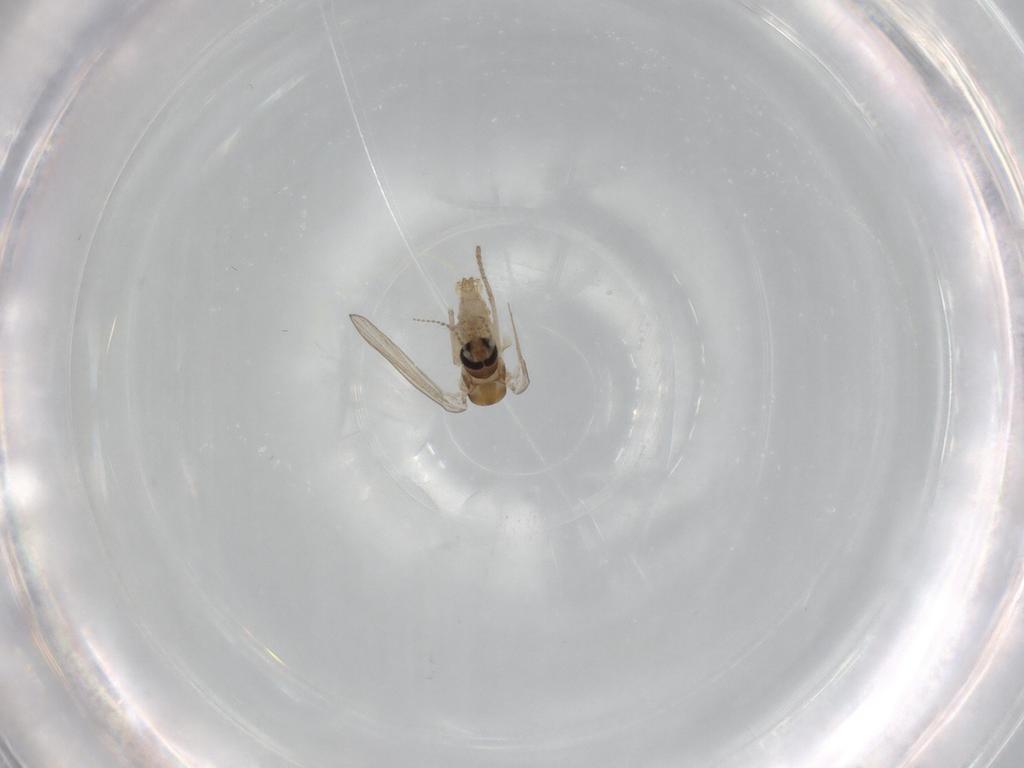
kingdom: Animalia
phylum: Arthropoda
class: Insecta
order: Diptera
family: Psychodidae
